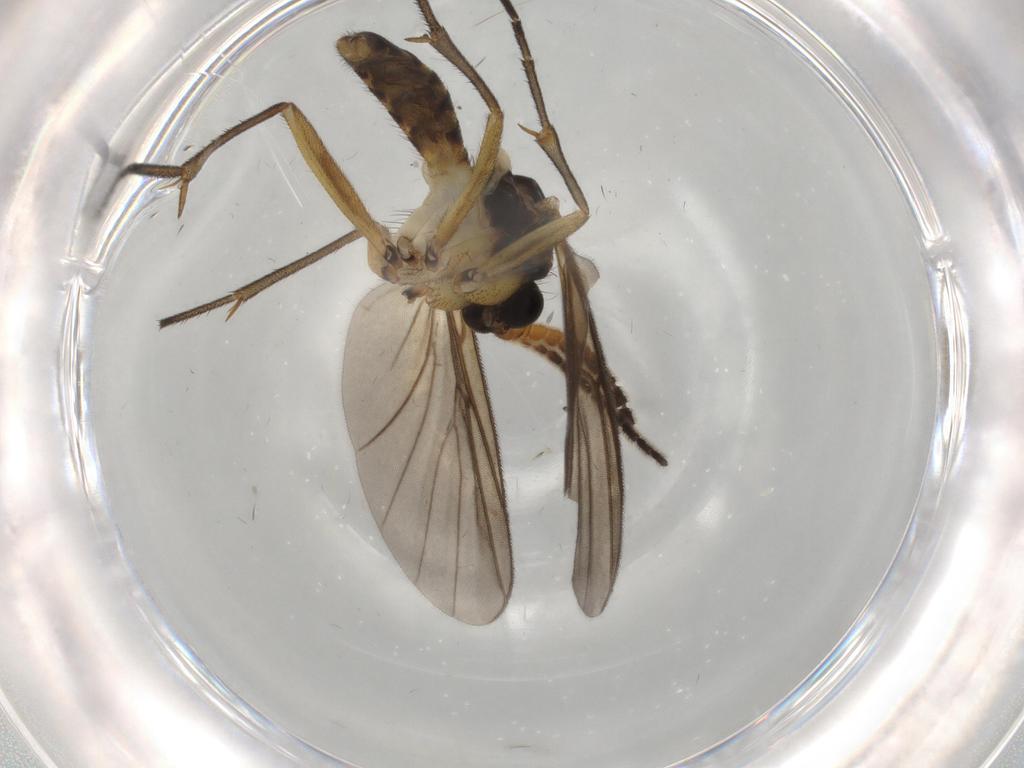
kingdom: Animalia
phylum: Arthropoda
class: Insecta
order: Diptera
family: Mycetophilidae
